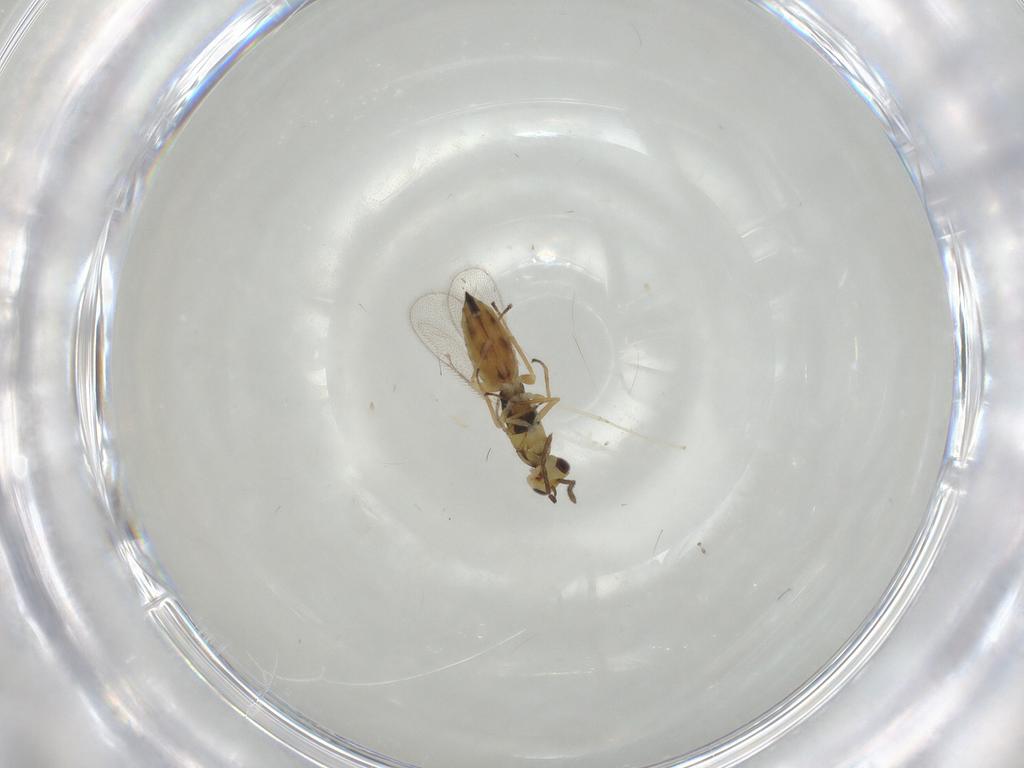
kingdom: Animalia
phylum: Arthropoda
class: Insecta
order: Hymenoptera
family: Eulophidae
